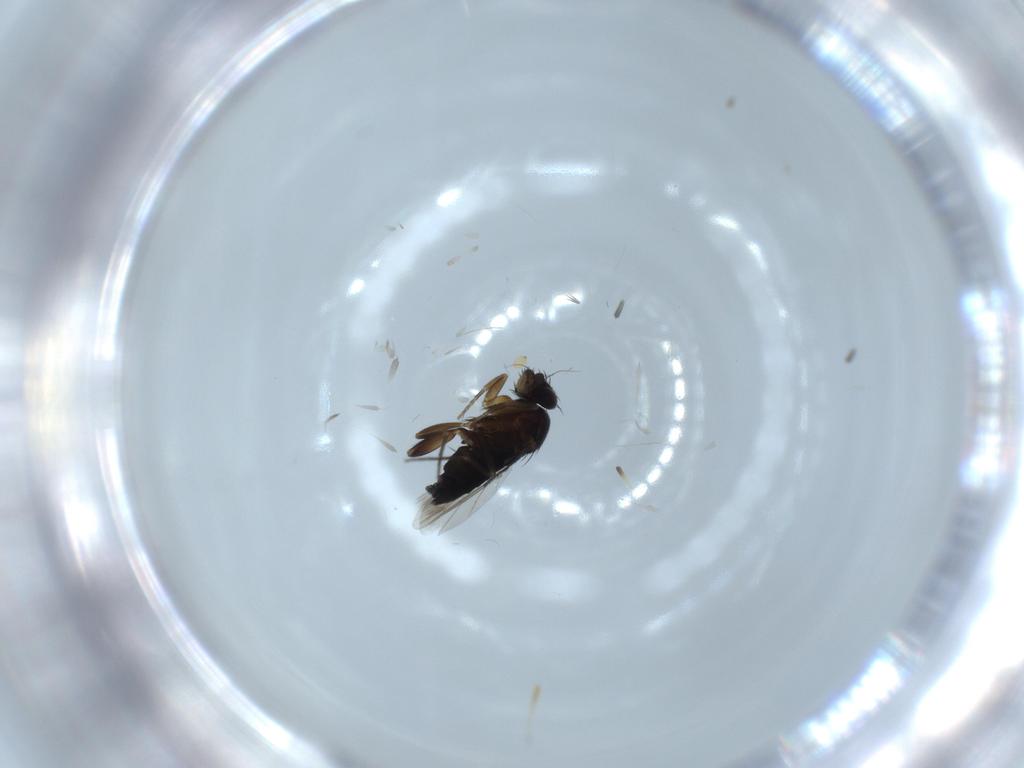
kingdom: Animalia
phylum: Arthropoda
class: Insecta
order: Diptera
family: Phoridae
